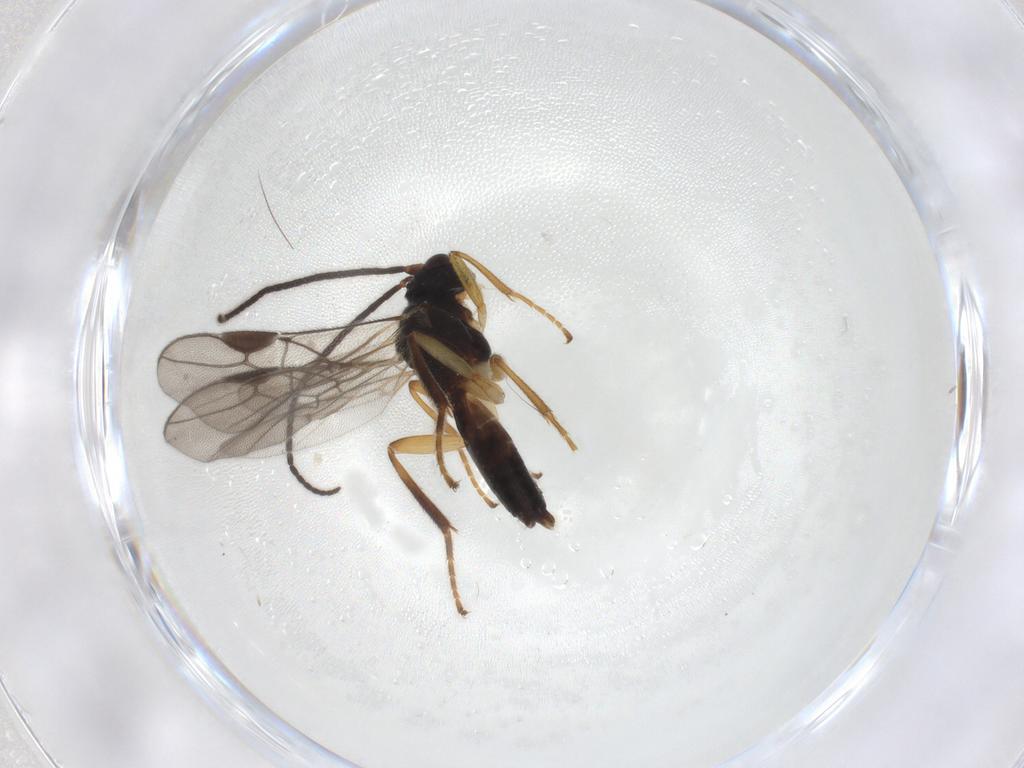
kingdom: Animalia
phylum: Arthropoda
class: Insecta
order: Hymenoptera
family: Braconidae
